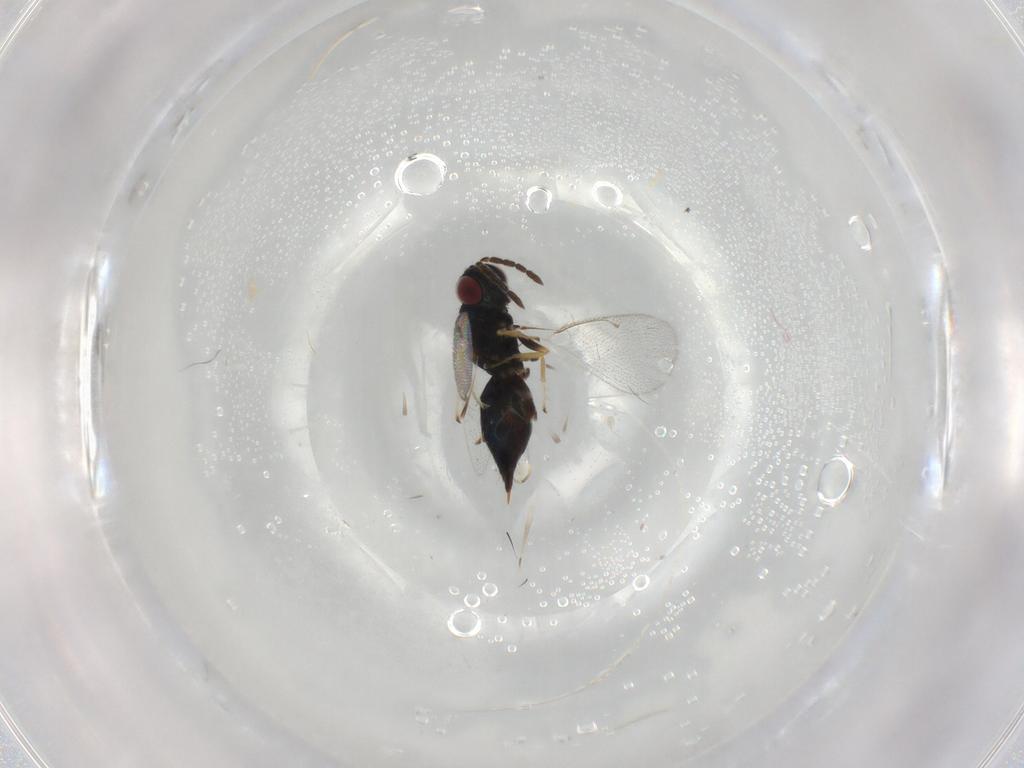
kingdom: Animalia
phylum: Arthropoda
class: Insecta
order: Hymenoptera
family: Eulophidae
